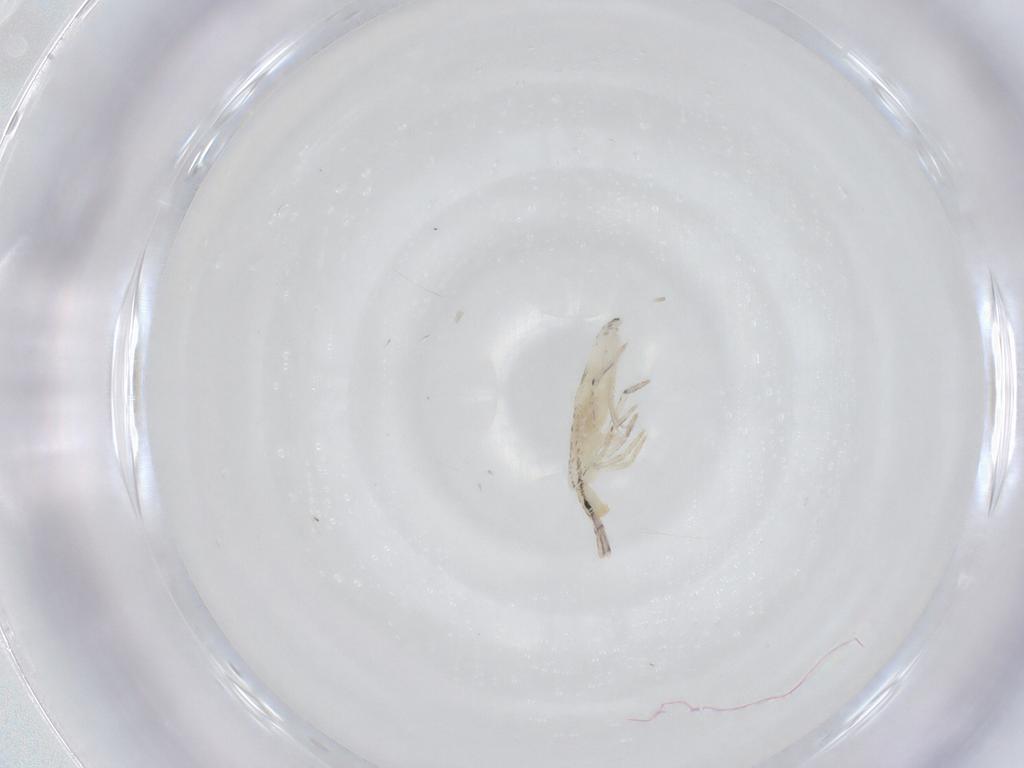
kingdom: Animalia
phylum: Arthropoda
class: Collembola
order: Entomobryomorpha
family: Entomobryidae
